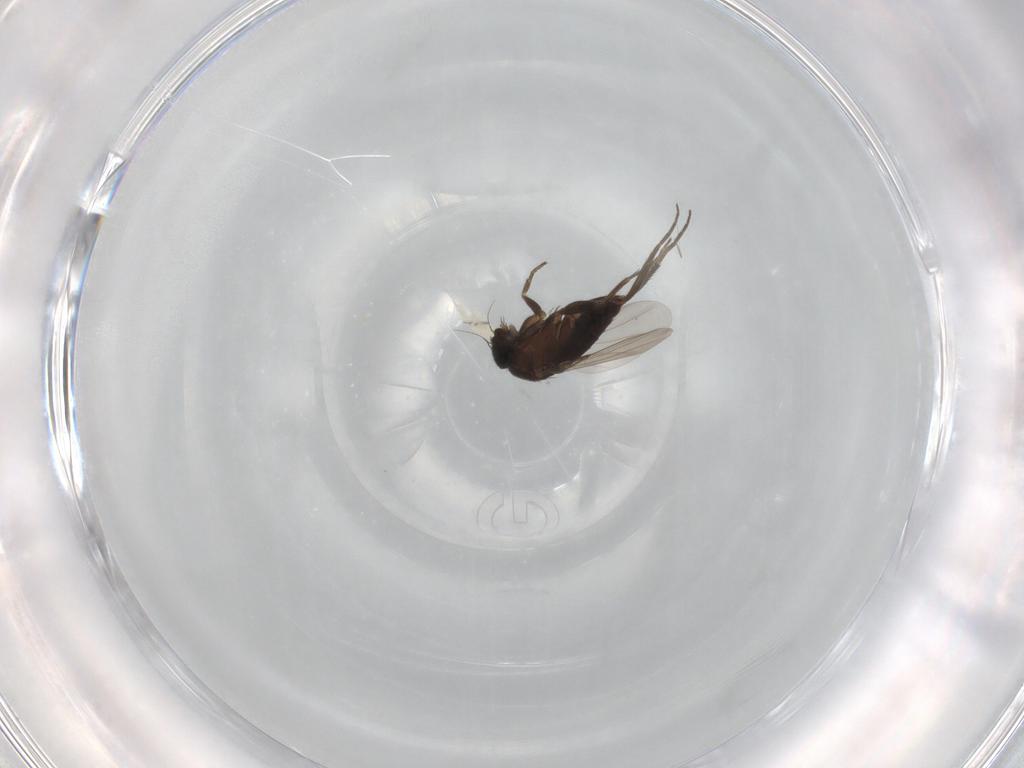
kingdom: Animalia
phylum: Arthropoda
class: Insecta
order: Diptera
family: Phoridae
